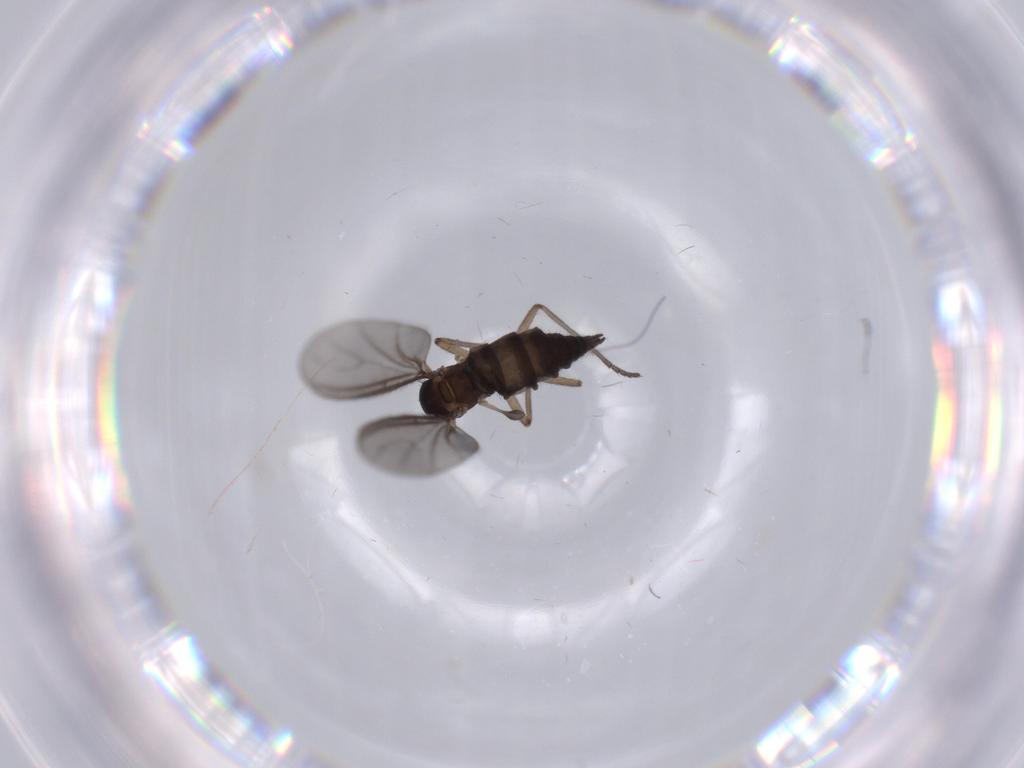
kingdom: Animalia
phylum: Arthropoda
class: Insecta
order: Diptera
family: Sciaridae
